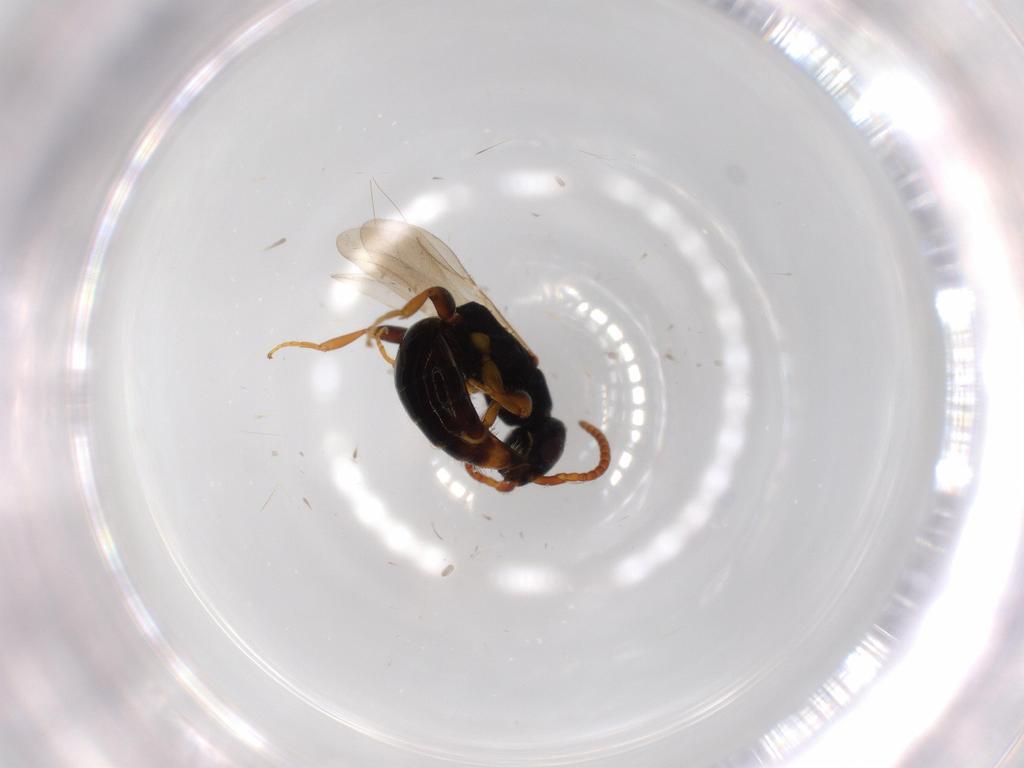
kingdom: Animalia
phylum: Arthropoda
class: Insecta
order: Hymenoptera
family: Bethylidae
